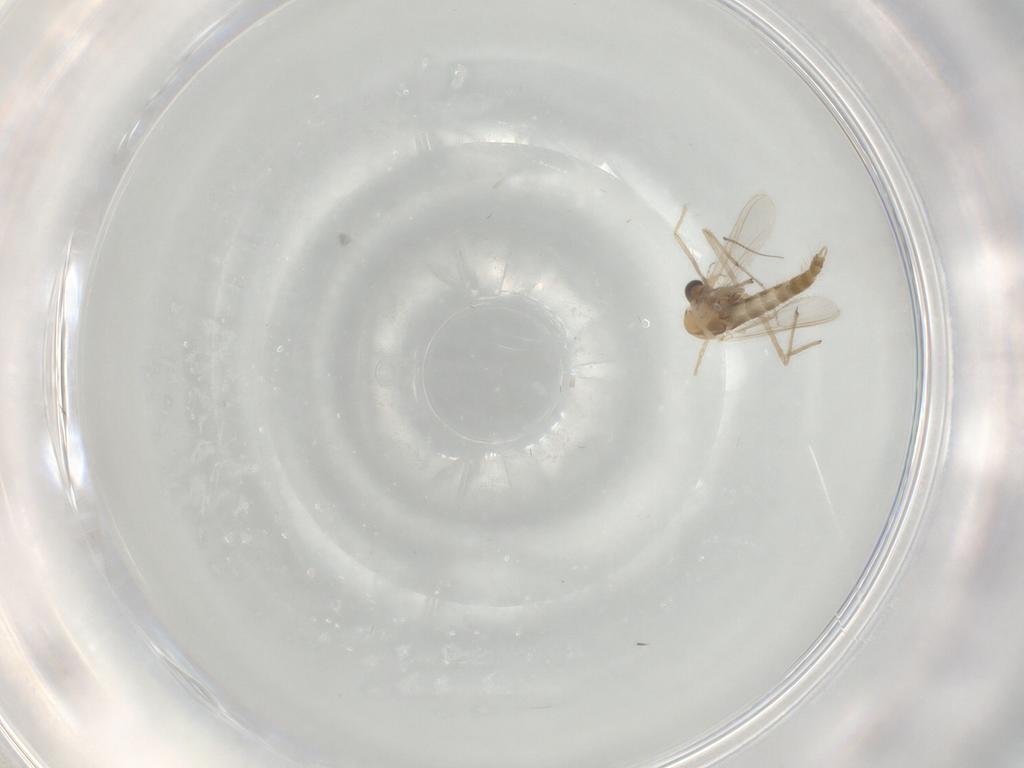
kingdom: Animalia
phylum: Arthropoda
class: Insecta
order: Diptera
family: Chironomidae
